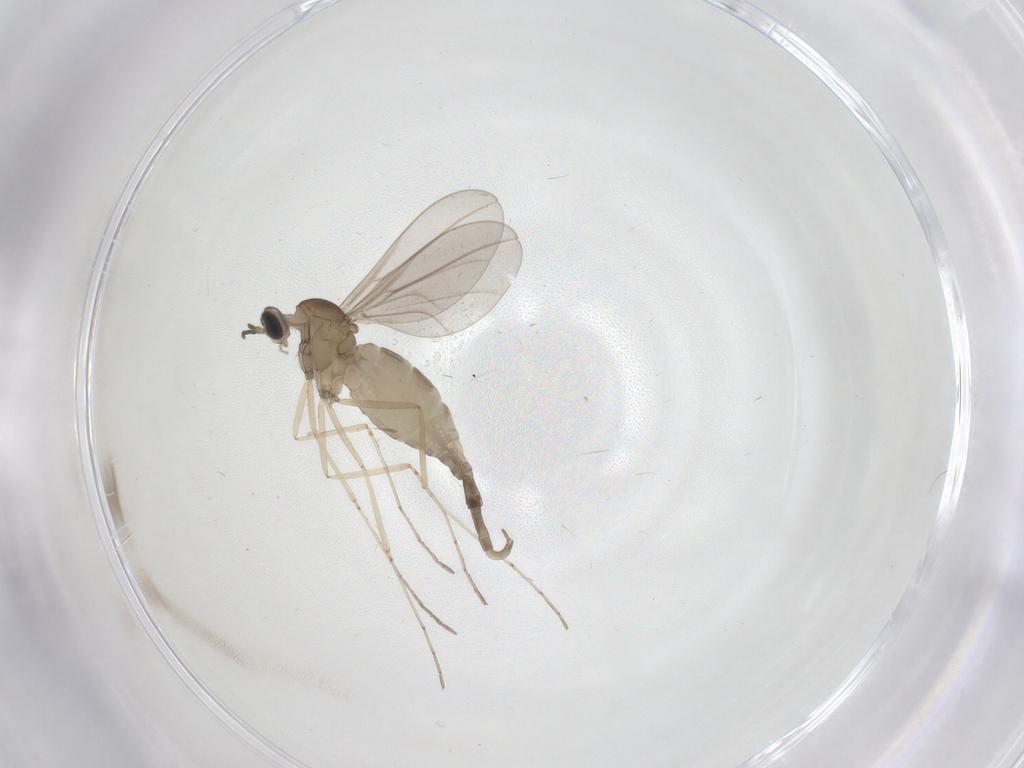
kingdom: Animalia
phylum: Arthropoda
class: Insecta
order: Diptera
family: Cecidomyiidae
